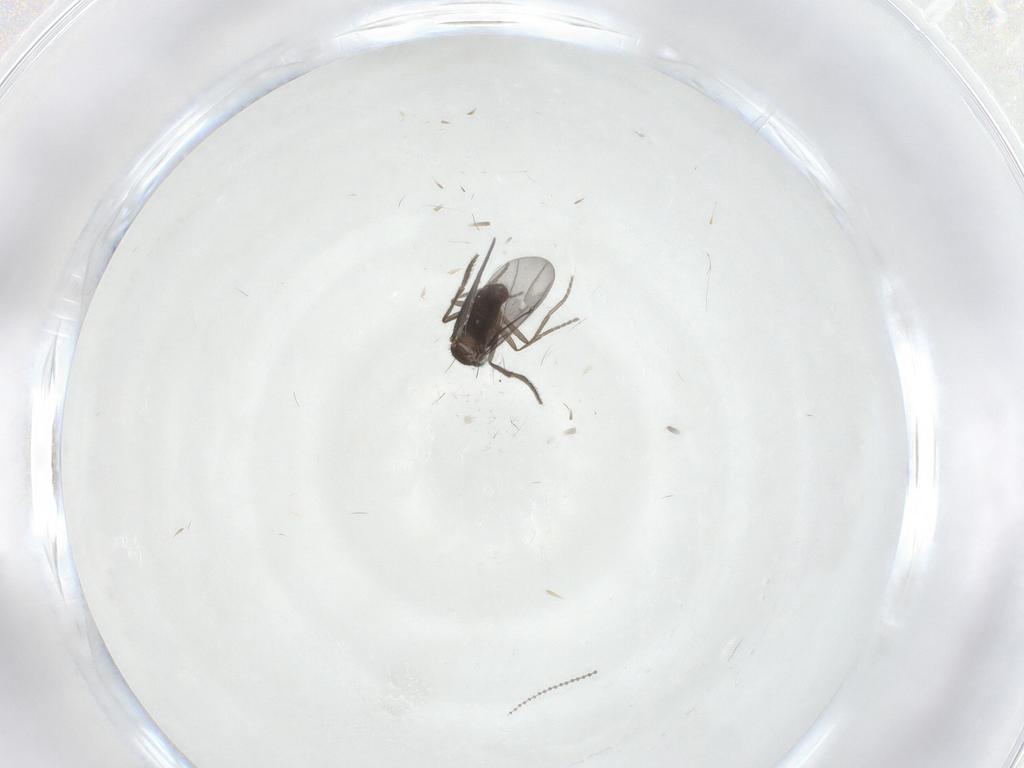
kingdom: Animalia
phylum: Arthropoda
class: Insecta
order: Diptera
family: Phoridae
